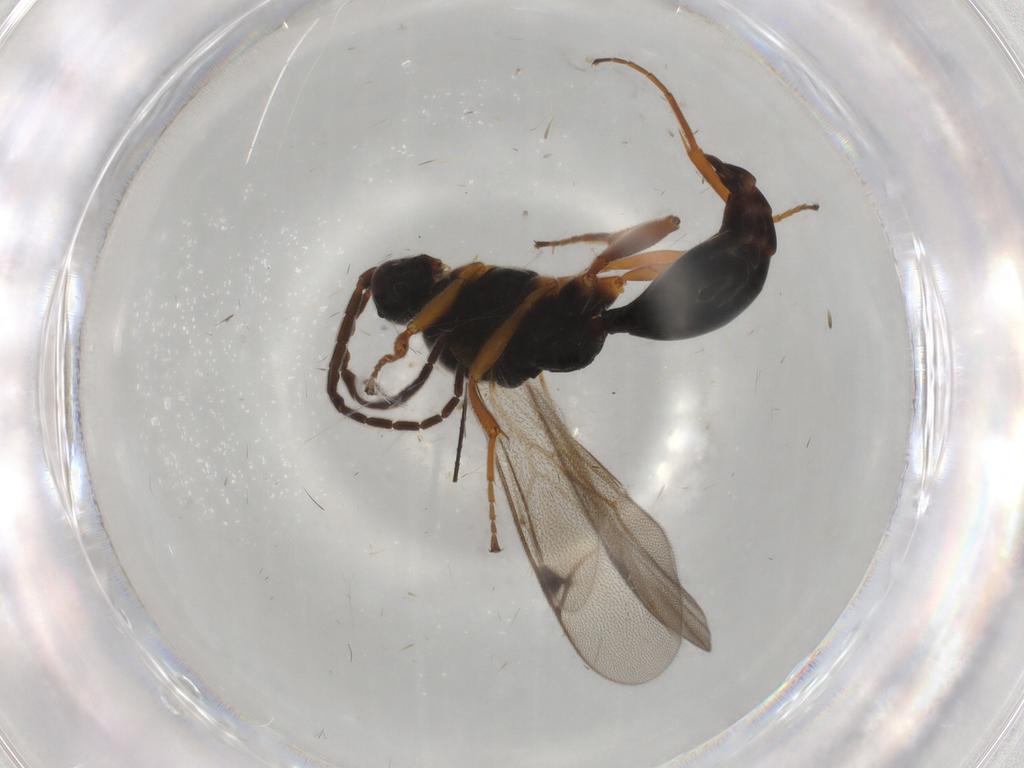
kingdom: Animalia
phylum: Arthropoda
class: Insecta
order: Hymenoptera
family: Proctotrupidae
